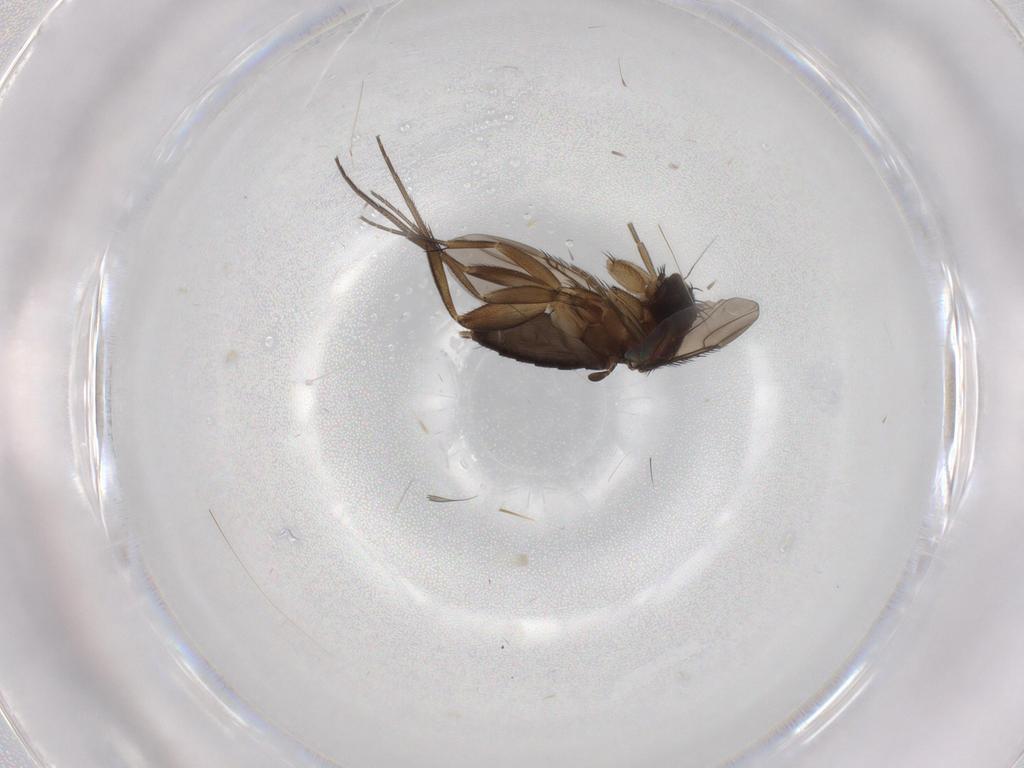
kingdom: Animalia
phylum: Arthropoda
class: Insecta
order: Diptera
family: Phoridae
